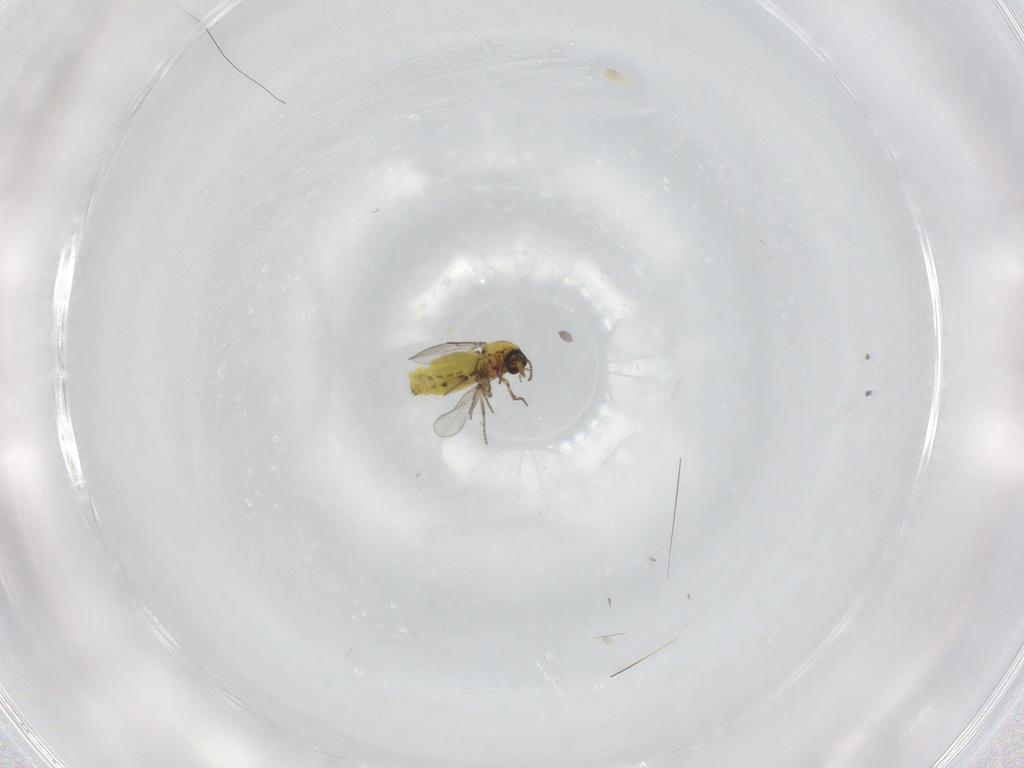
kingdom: Animalia
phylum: Arthropoda
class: Insecta
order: Diptera
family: Ceratopogonidae
